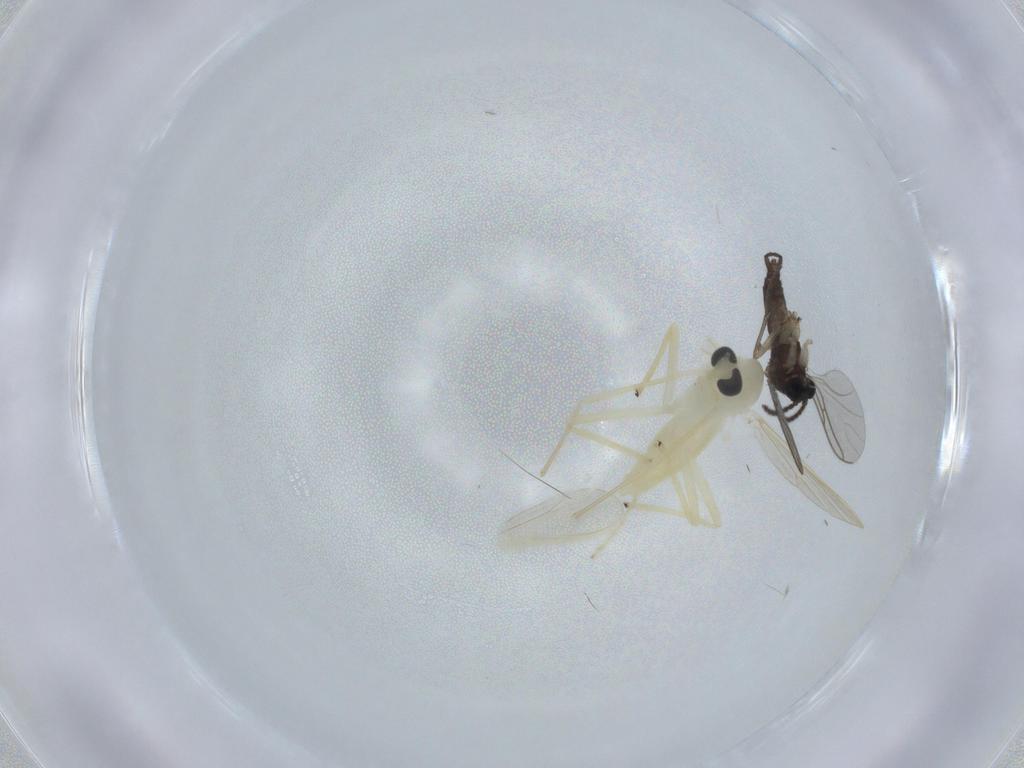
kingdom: Animalia
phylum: Arthropoda
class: Insecta
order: Diptera
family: Chironomidae
